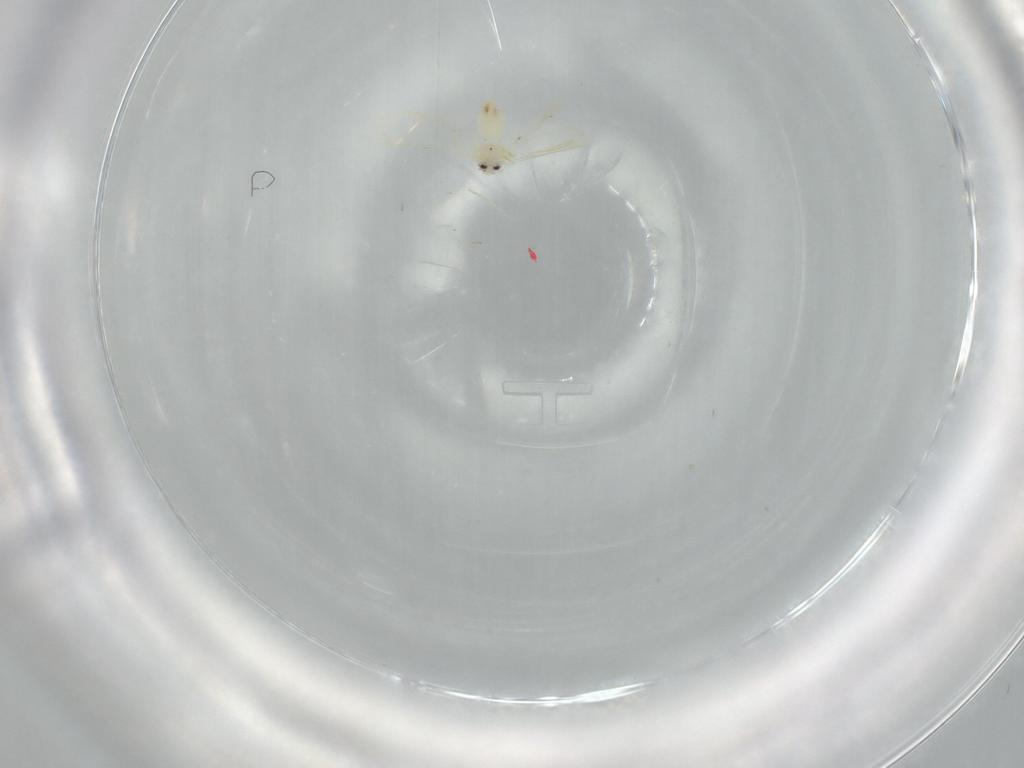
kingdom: Animalia
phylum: Arthropoda
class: Insecta
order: Hemiptera
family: Aleyrodidae
